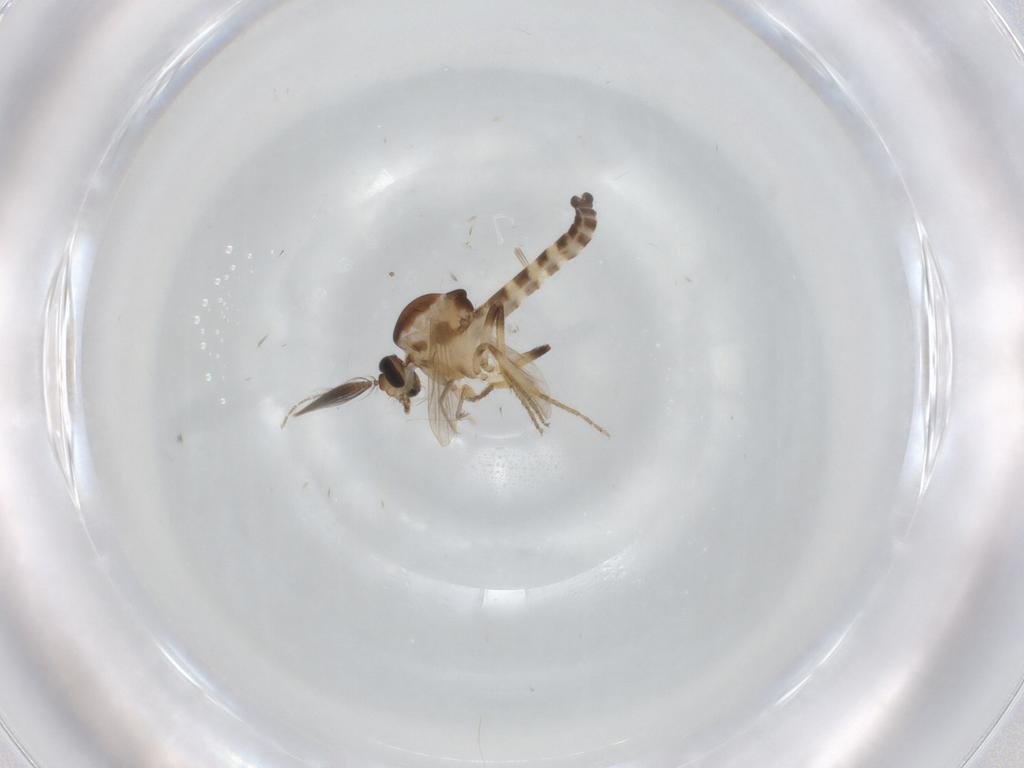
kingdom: Animalia
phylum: Arthropoda
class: Insecta
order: Diptera
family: Ceratopogonidae
